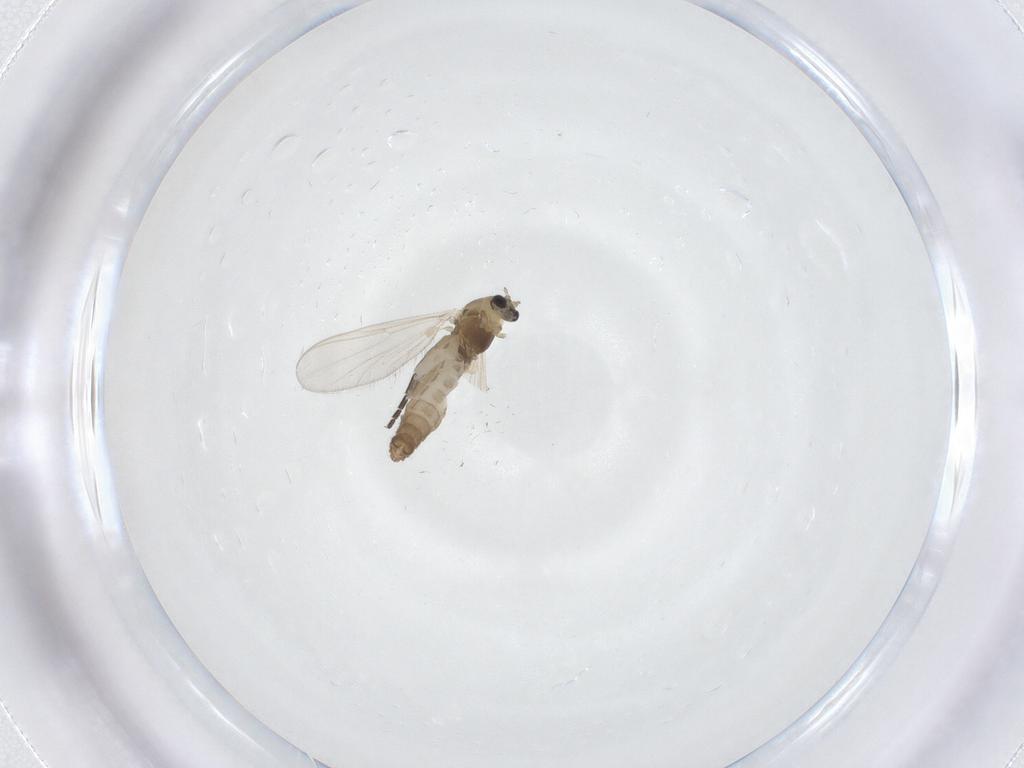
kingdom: Animalia
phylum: Arthropoda
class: Insecta
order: Diptera
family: Chironomidae
